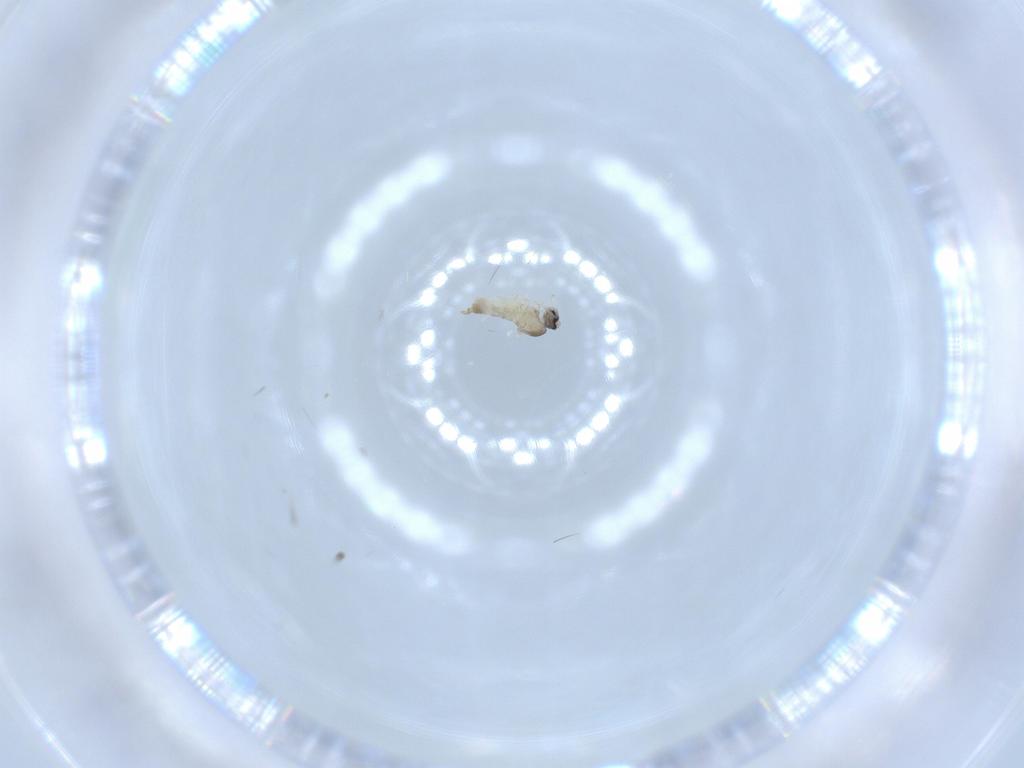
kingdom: Animalia
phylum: Arthropoda
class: Insecta
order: Diptera
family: Cecidomyiidae
